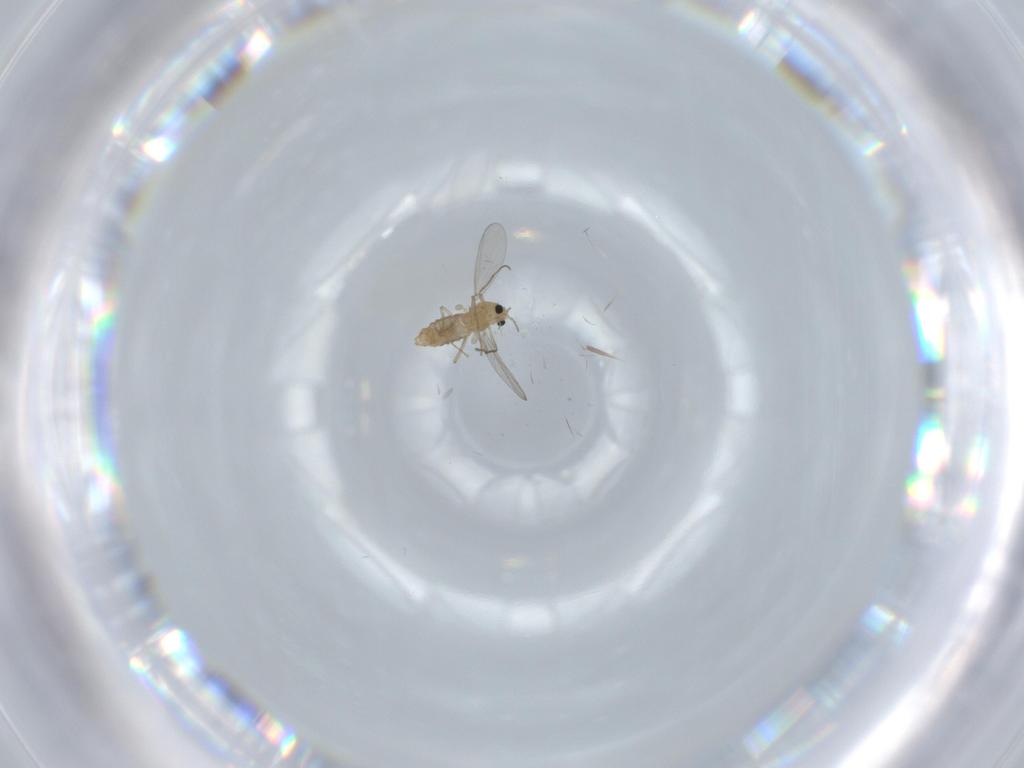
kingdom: Animalia
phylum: Arthropoda
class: Insecta
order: Diptera
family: Chironomidae
